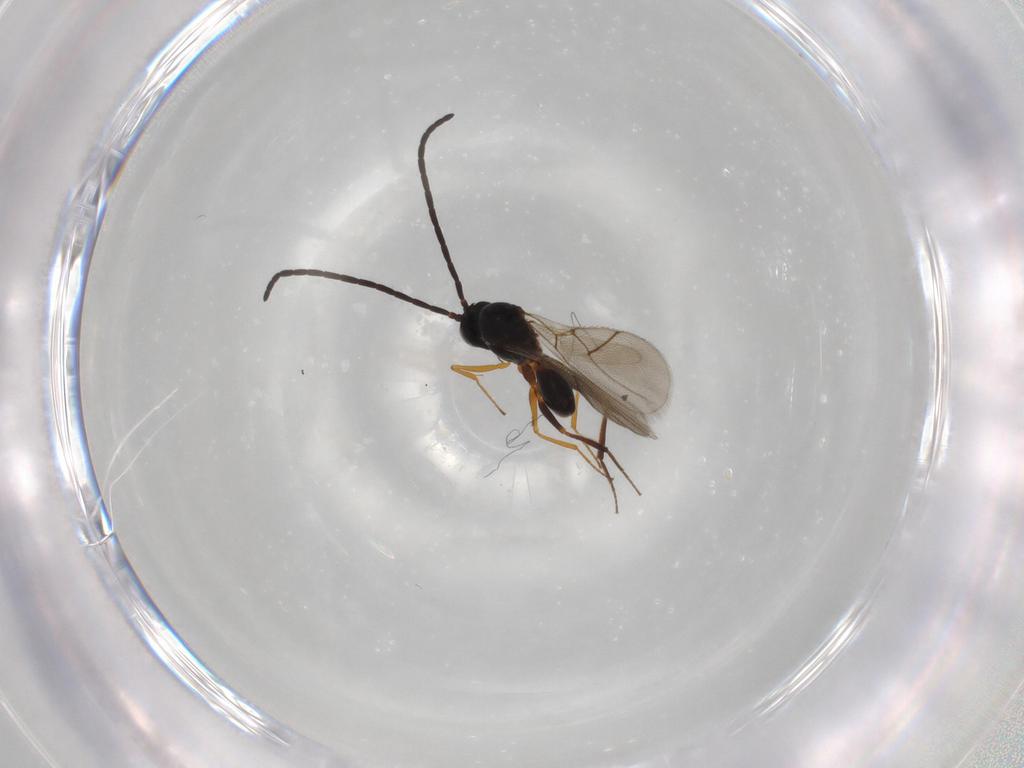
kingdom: Animalia
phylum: Arthropoda
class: Insecta
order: Hymenoptera
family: Figitidae
